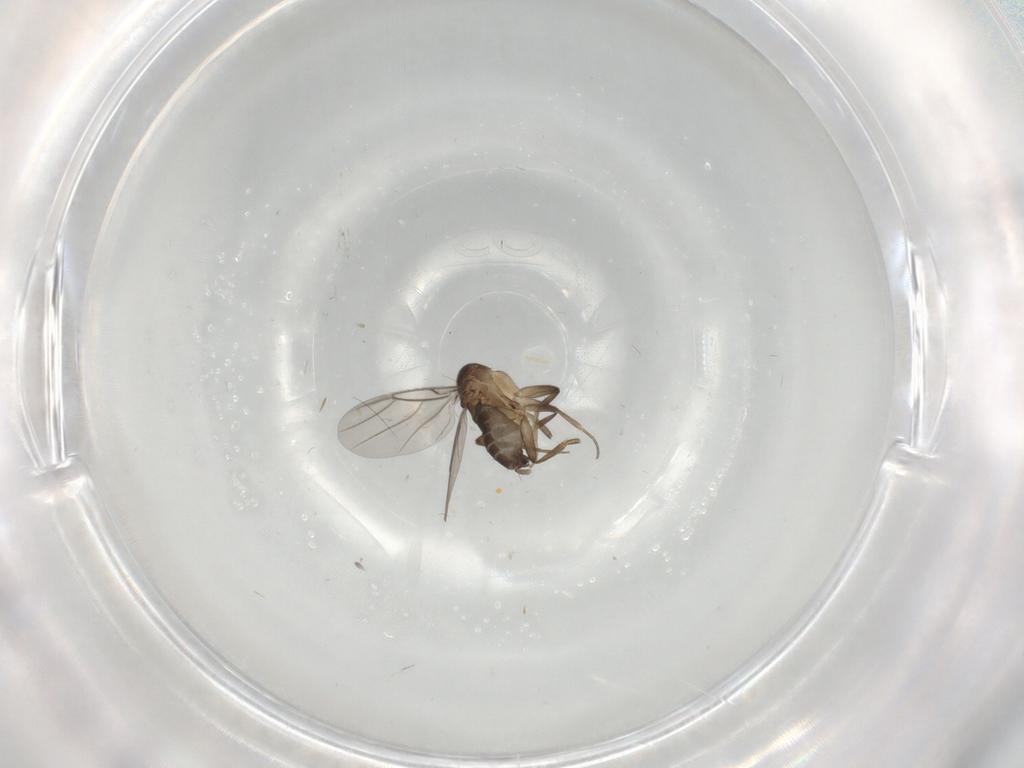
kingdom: Animalia
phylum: Arthropoda
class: Insecta
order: Diptera
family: Phoridae
